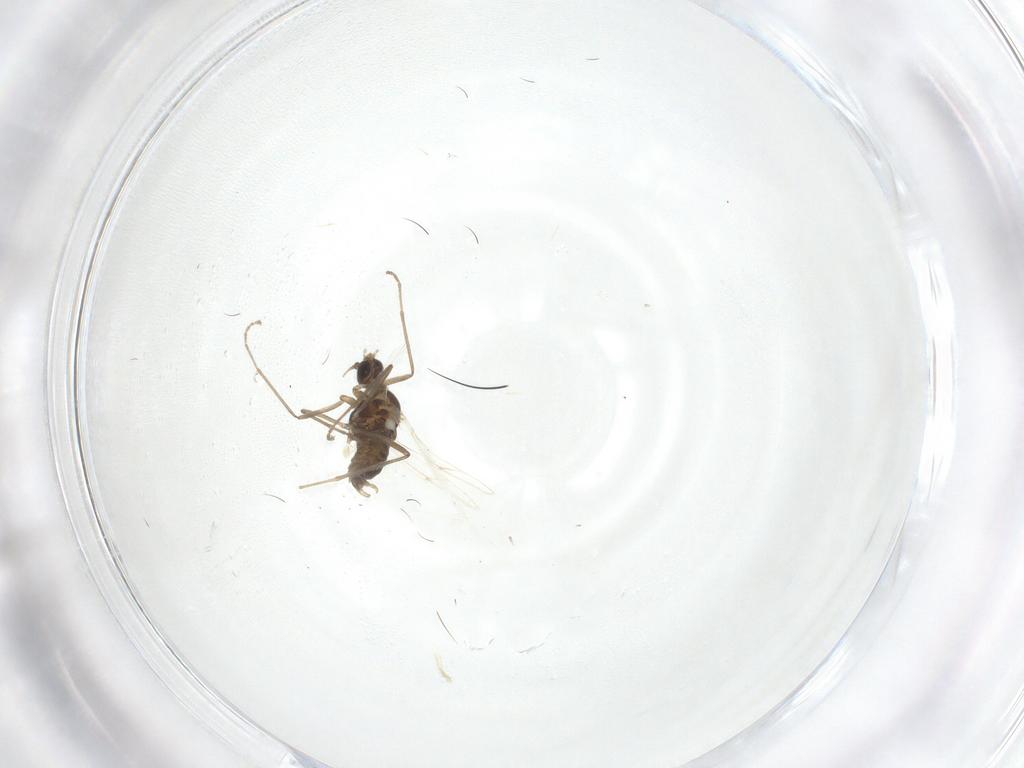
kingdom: Animalia
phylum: Arthropoda
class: Insecta
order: Diptera
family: Cecidomyiidae
